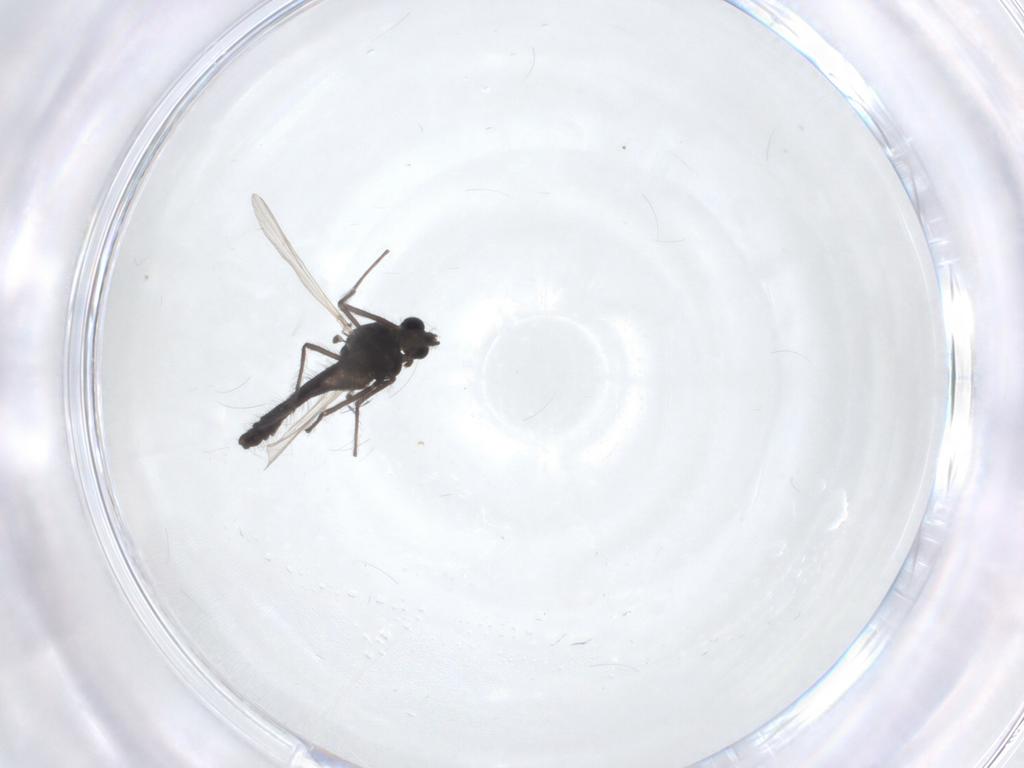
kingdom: Animalia
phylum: Arthropoda
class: Insecta
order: Diptera
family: Chironomidae
